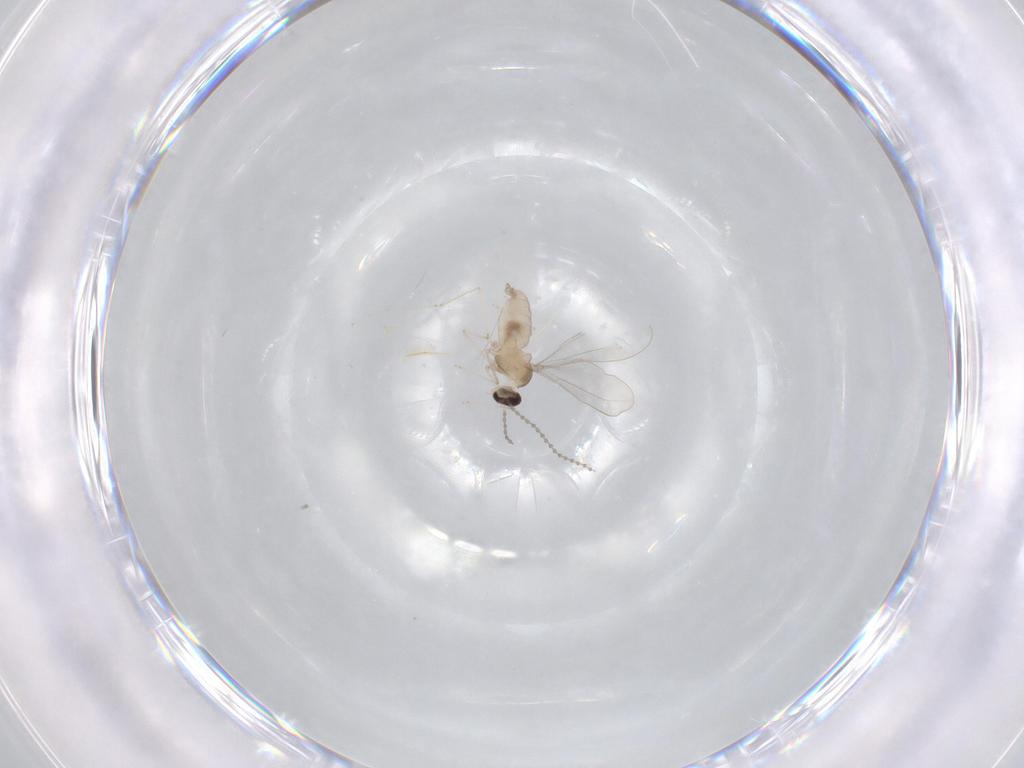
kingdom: Animalia
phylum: Arthropoda
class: Insecta
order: Diptera
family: Cecidomyiidae
